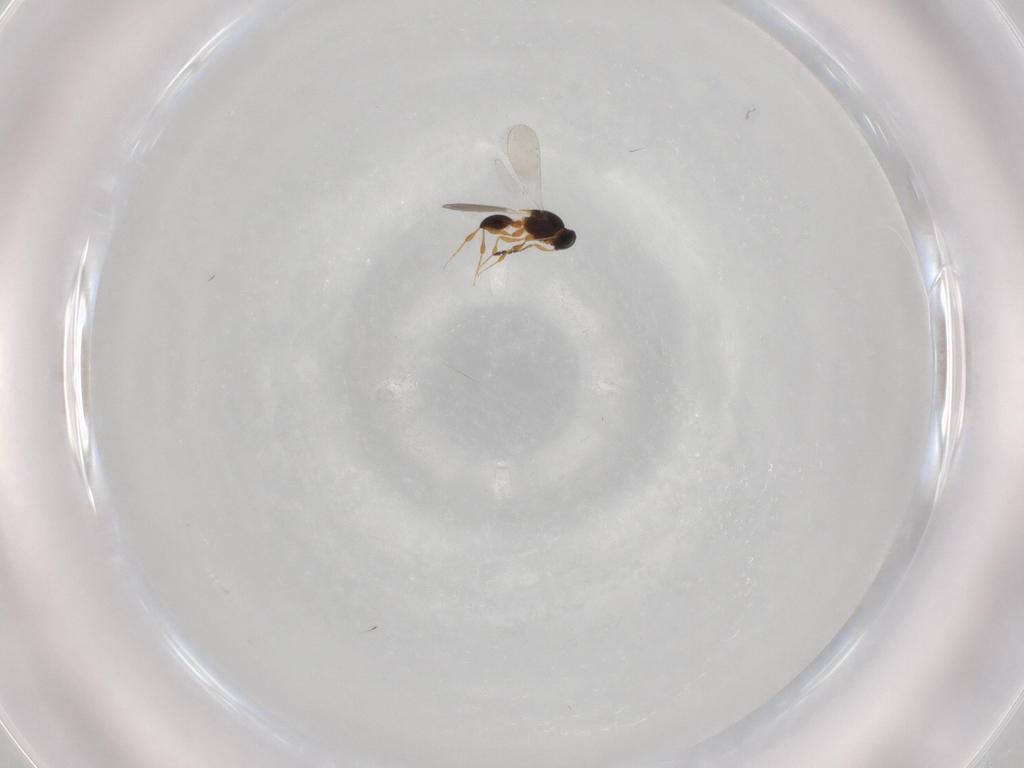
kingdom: Animalia
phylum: Arthropoda
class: Insecta
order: Hymenoptera
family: Platygastridae
